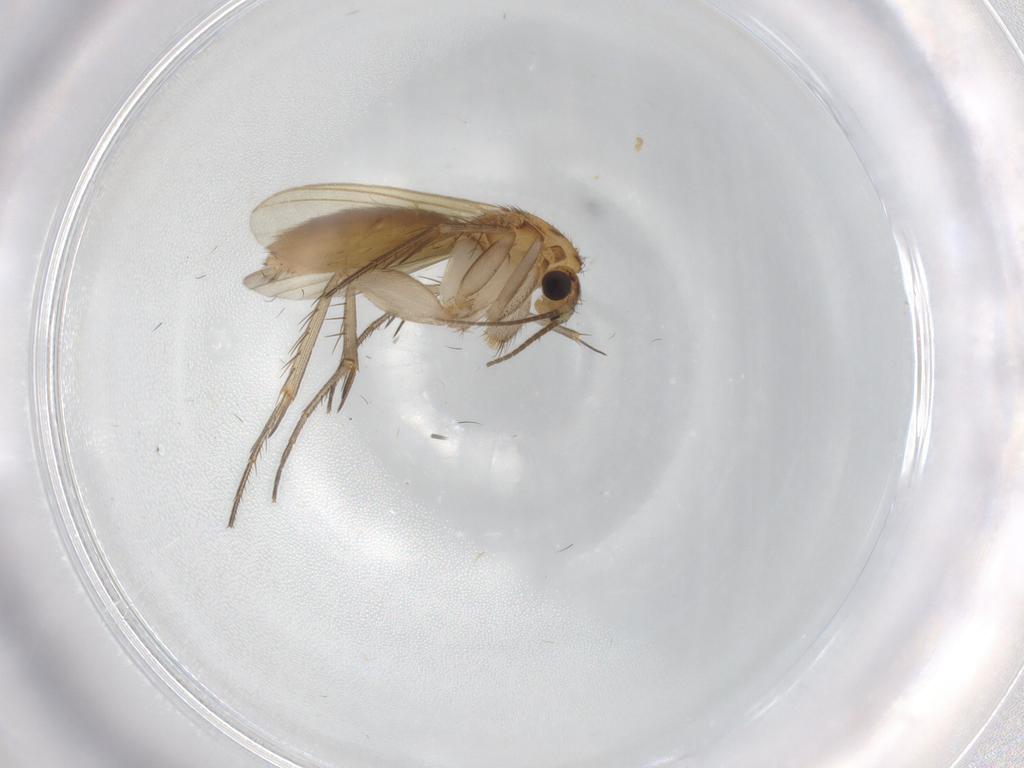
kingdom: Animalia
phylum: Arthropoda
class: Insecta
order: Diptera
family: Mycetophilidae
